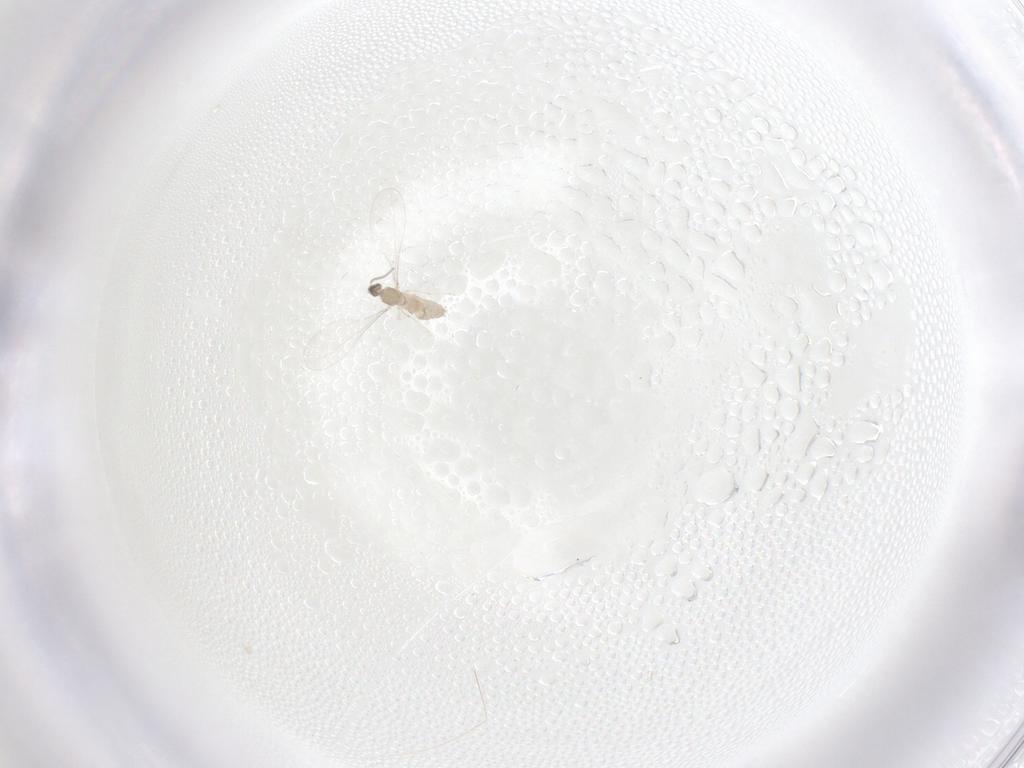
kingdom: Animalia
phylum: Arthropoda
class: Insecta
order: Diptera
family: Cecidomyiidae
